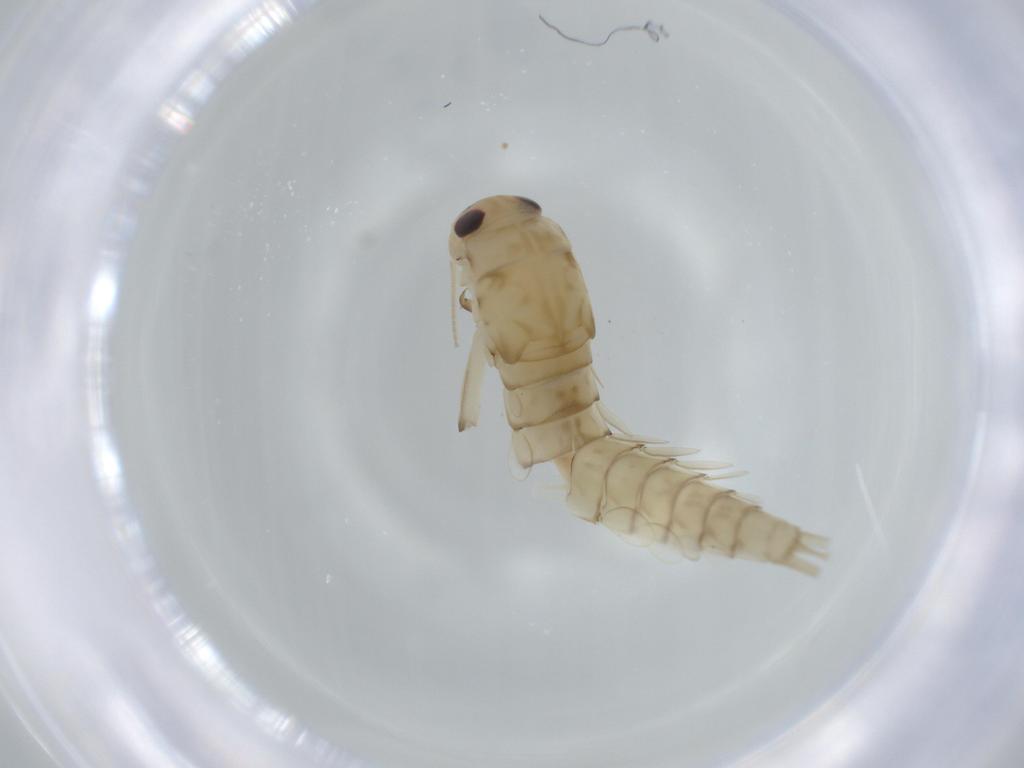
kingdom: Animalia
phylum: Arthropoda
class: Insecta
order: Ephemeroptera
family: Baetidae
